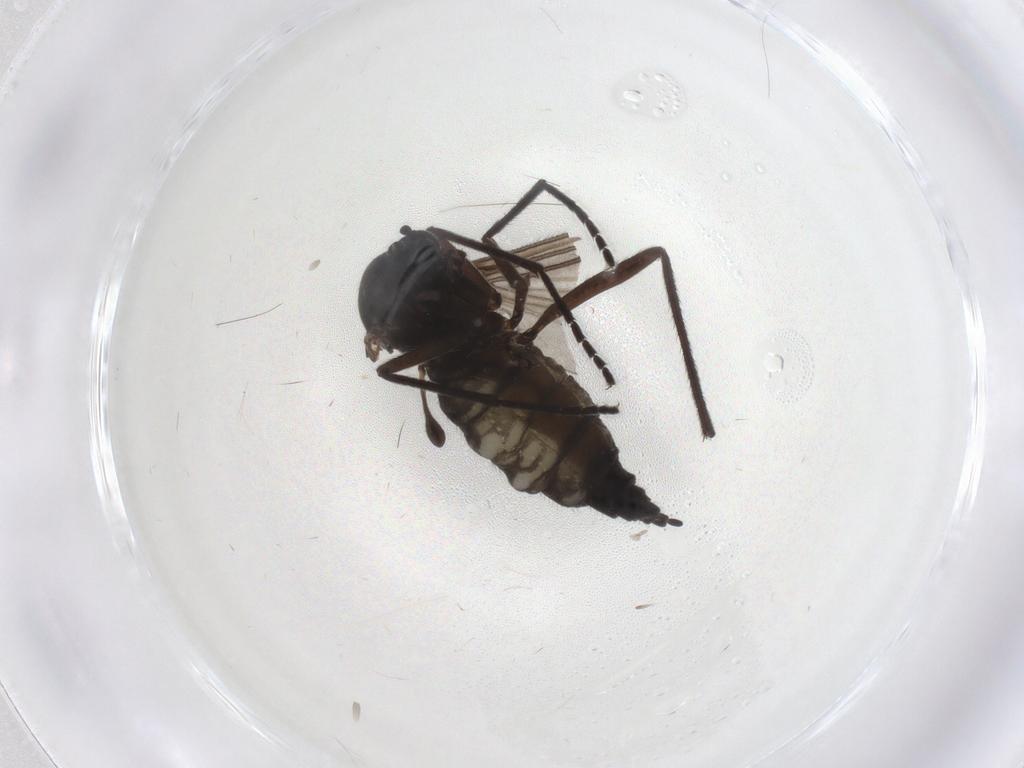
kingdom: Animalia
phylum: Arthropoda
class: Insecta
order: Diptera
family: Sciaridae
